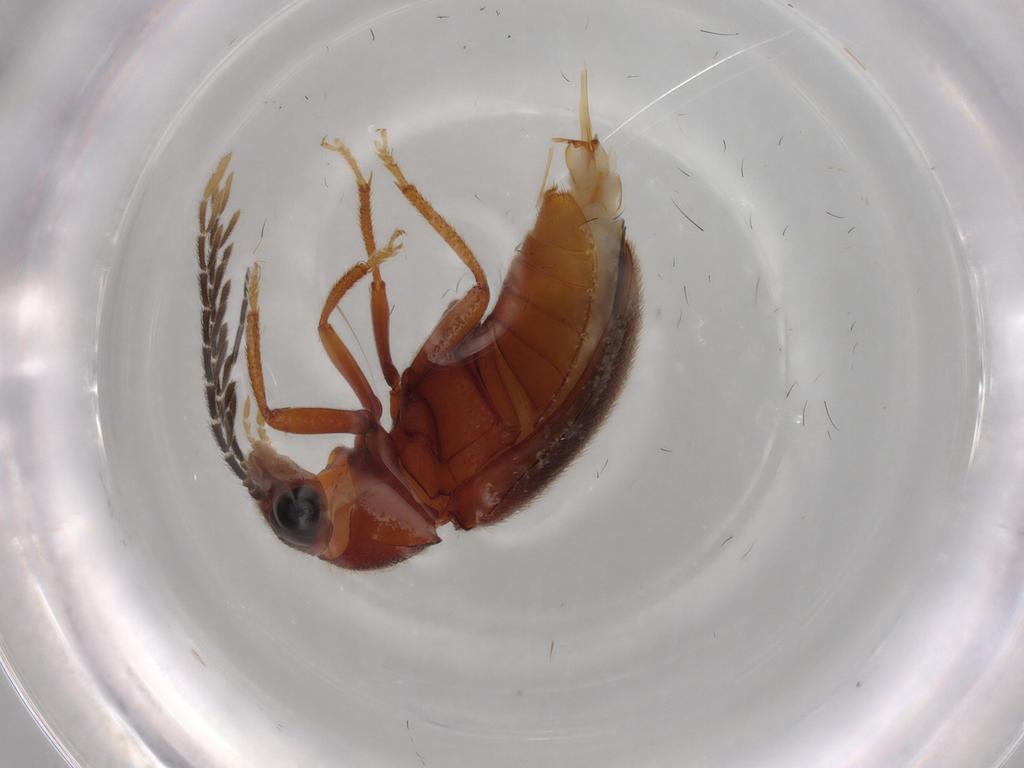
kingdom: Animalia
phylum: Arthropoda
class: Insecta
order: Coleoptera
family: Ptilodactylidae
